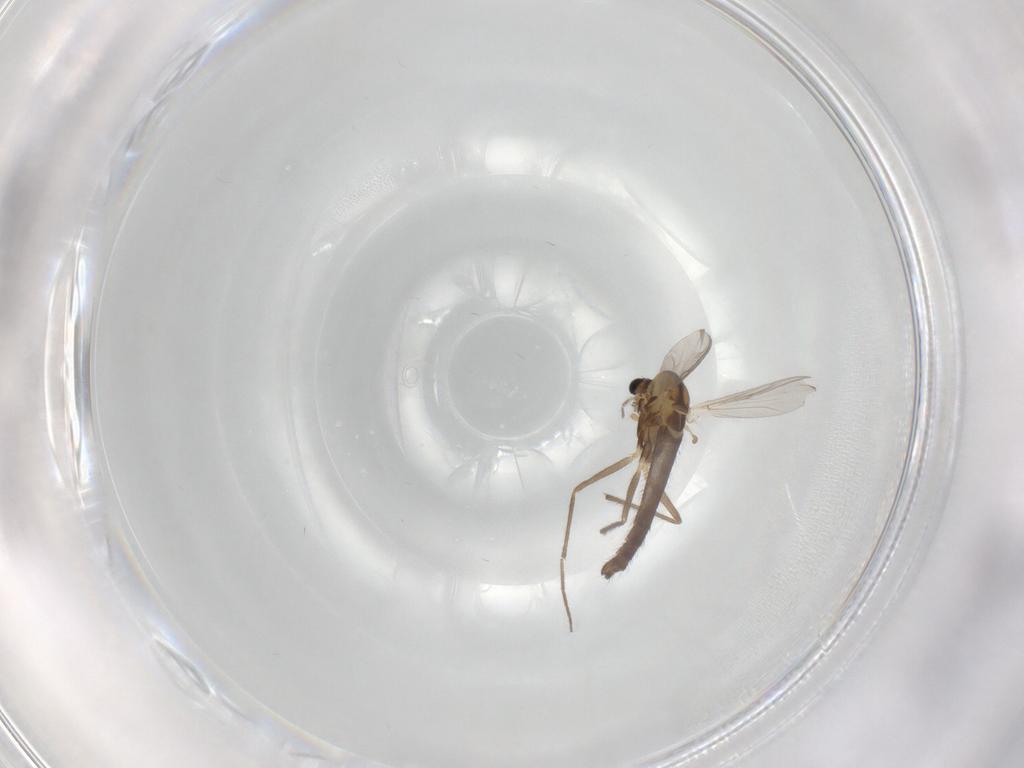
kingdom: Animalia
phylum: Arthropoda
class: Insecta
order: Diptera
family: Chironomidae
